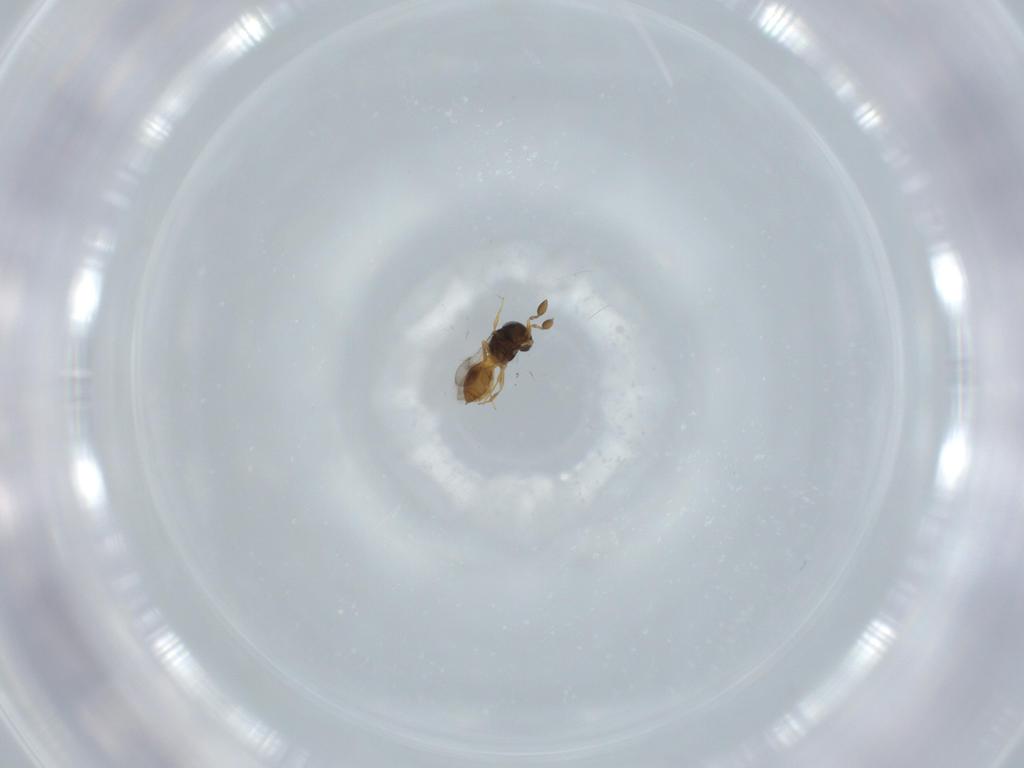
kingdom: Animalia
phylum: Arthropoda
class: Insecta
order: Hymenoptera
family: Scelionidae
